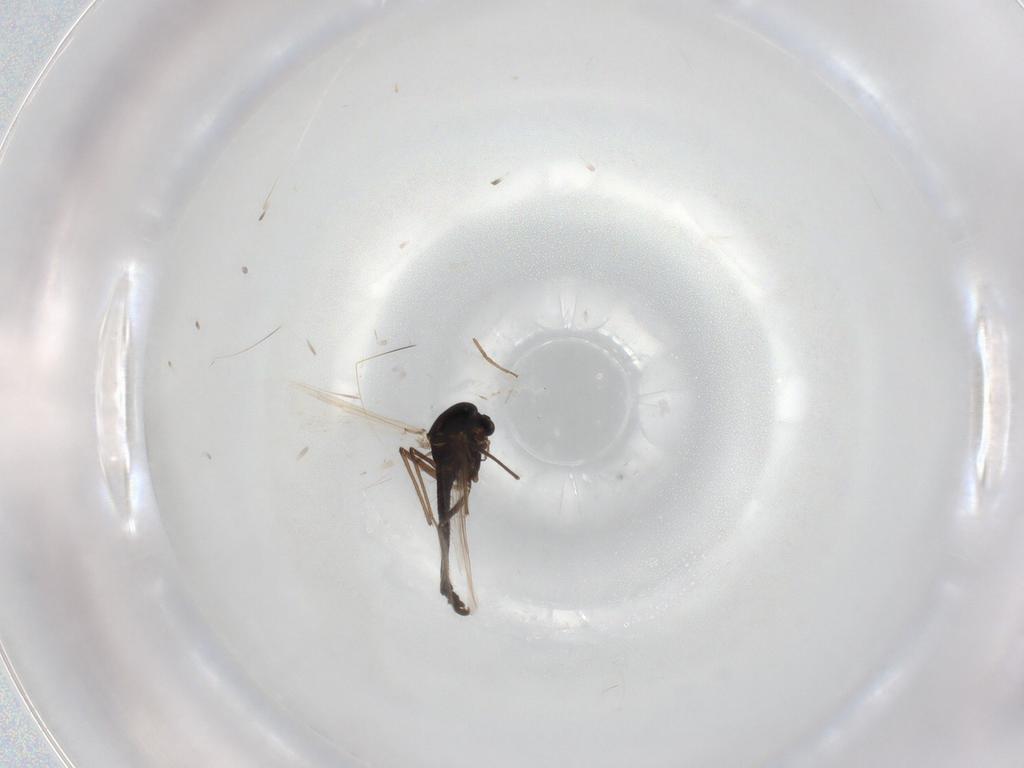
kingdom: Animalia
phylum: Arthropoda
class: Insecta
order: Diptera
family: Chironomidae
